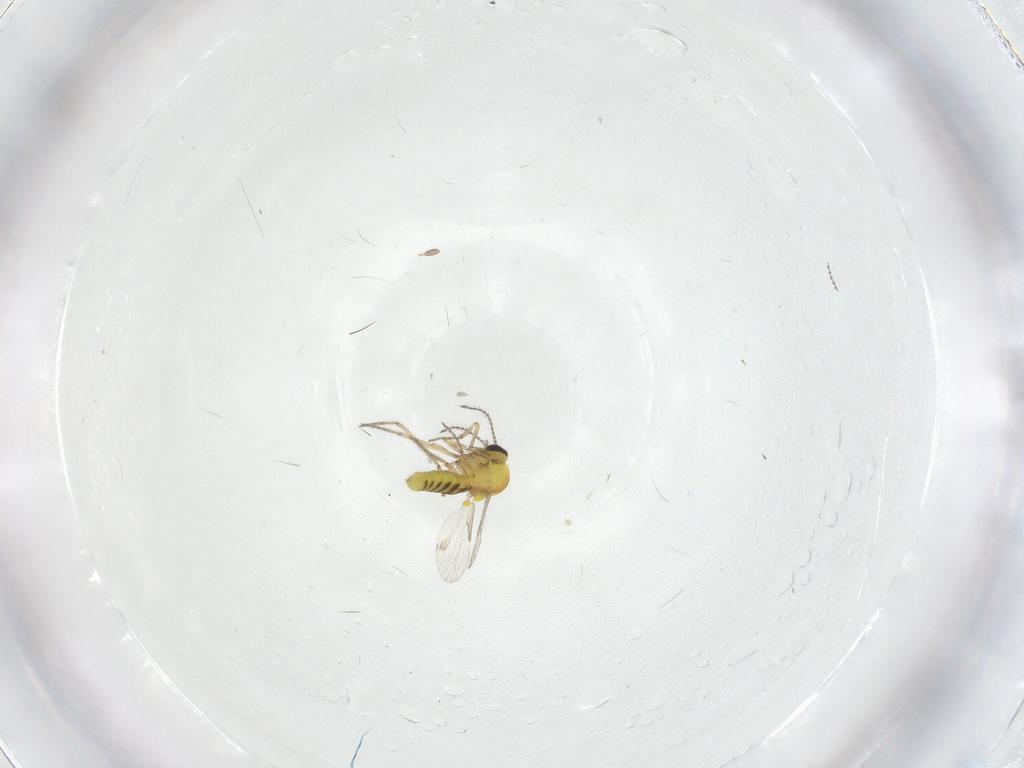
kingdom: Animalia
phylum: Arthropoda
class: Insecta
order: Diptera
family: Ceratopogonidae
